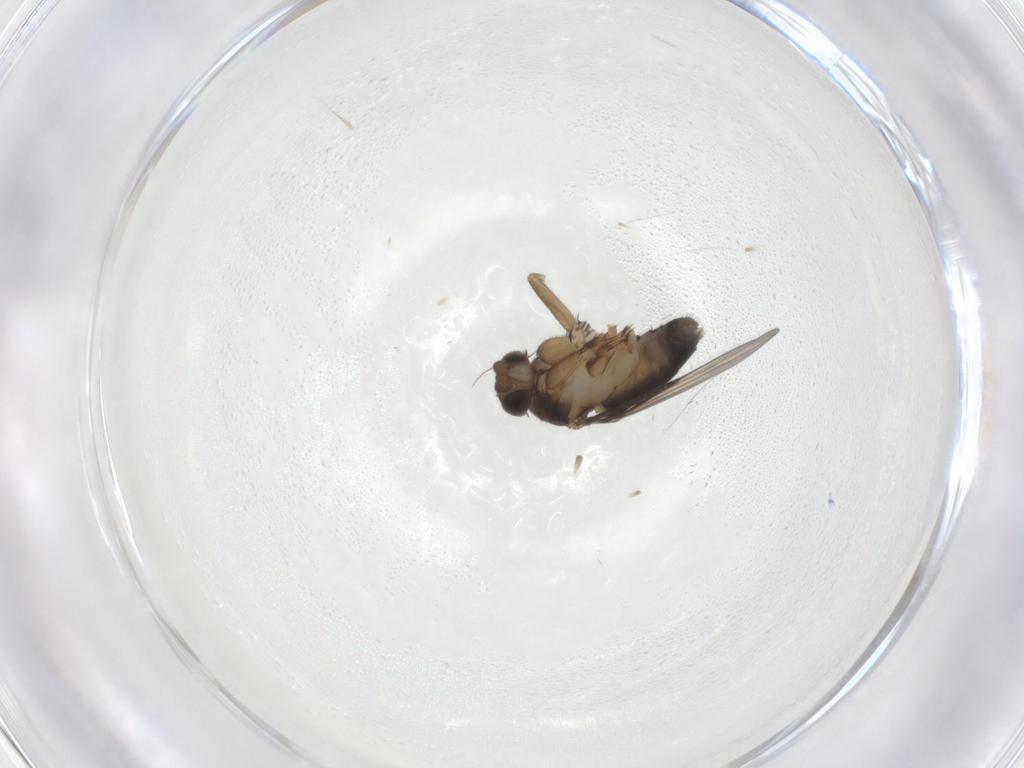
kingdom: Animalia
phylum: Arthropoda
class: Insecta
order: Diptera
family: Phoridae
